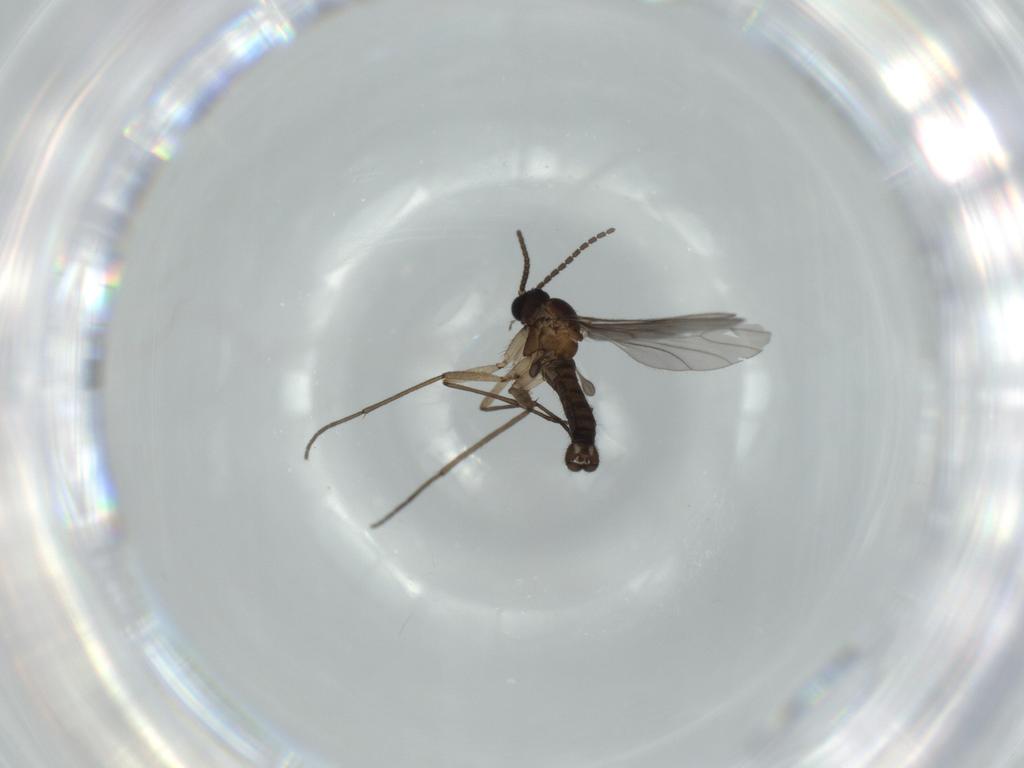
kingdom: Animalia
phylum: Arthropoda
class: Insecta
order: Diptera
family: Sciaridae
